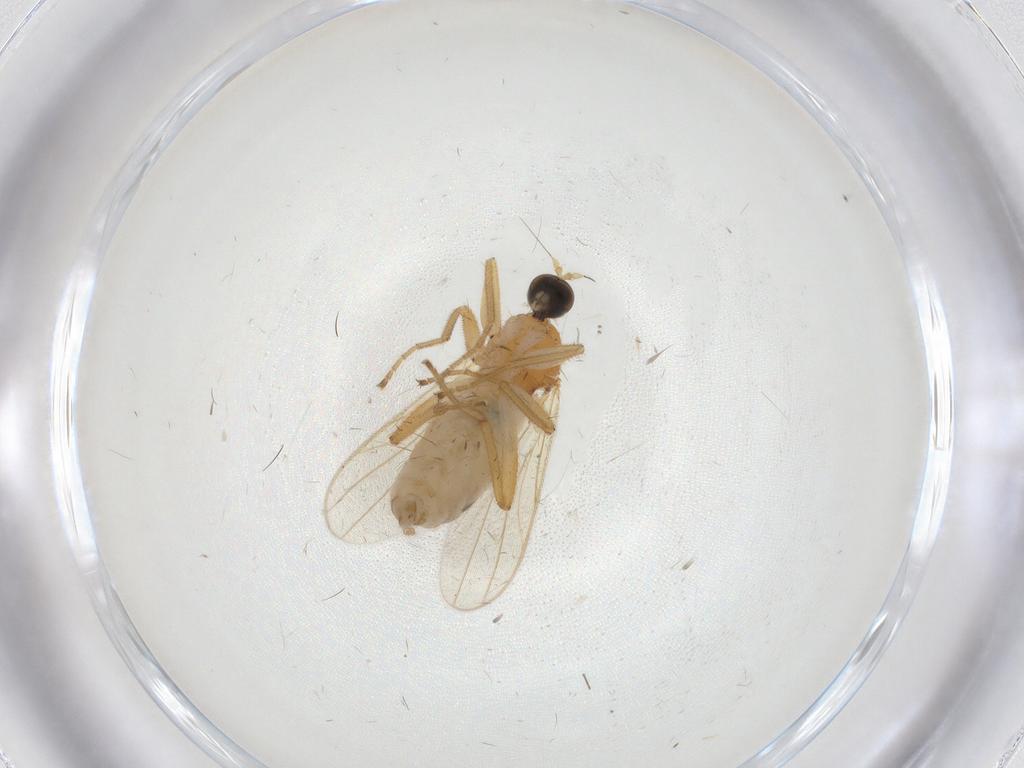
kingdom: Animalia
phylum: Arthropoda
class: Insecta
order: Diptera
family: Hybotidae
